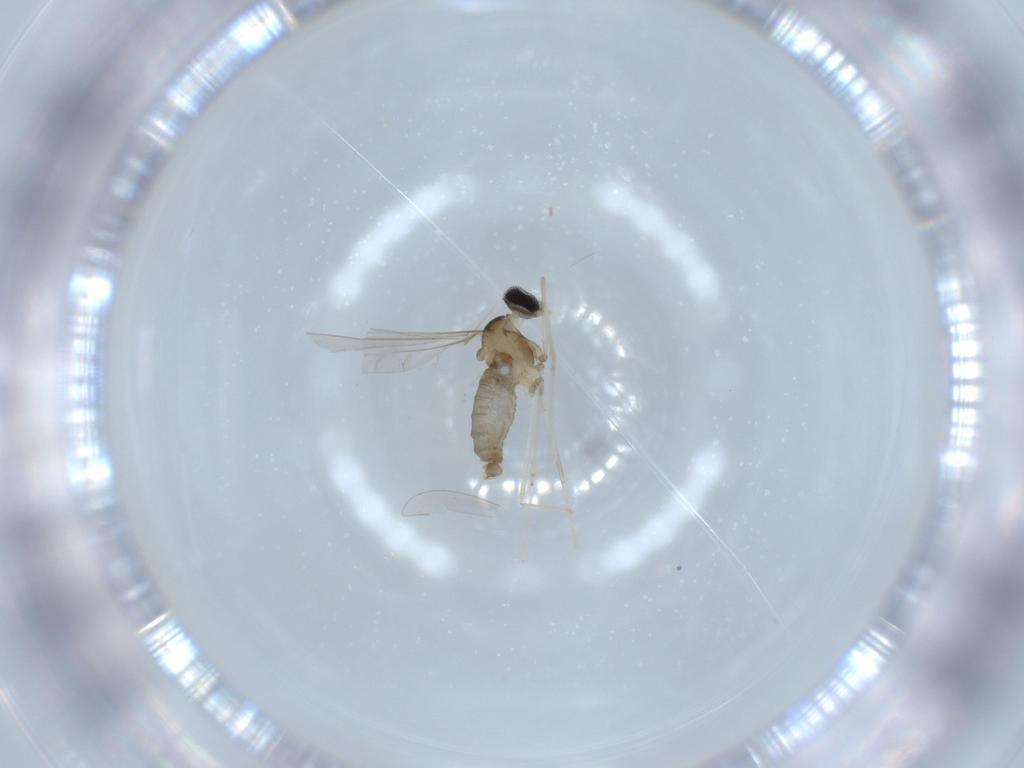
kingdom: Animalia
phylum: Arthropoda
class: Insecta
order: Diptera
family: Cecidomyiidae
